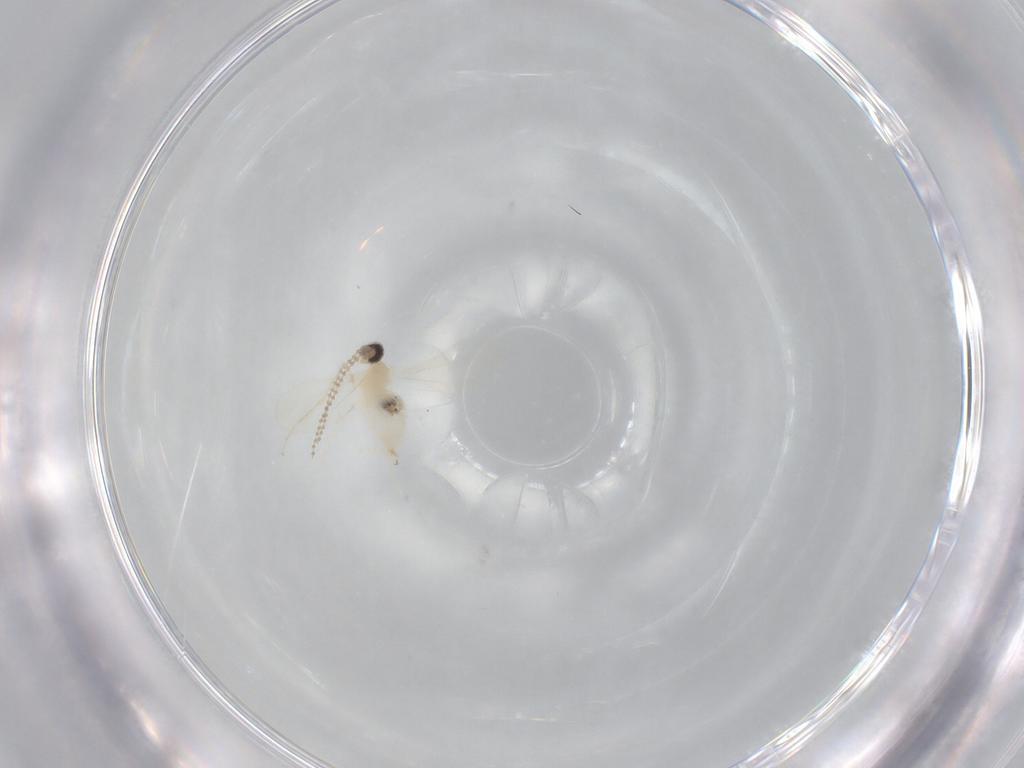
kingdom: Animalia
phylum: Arthropoda
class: Insecta
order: Diptera
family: Cecidomyiidae
